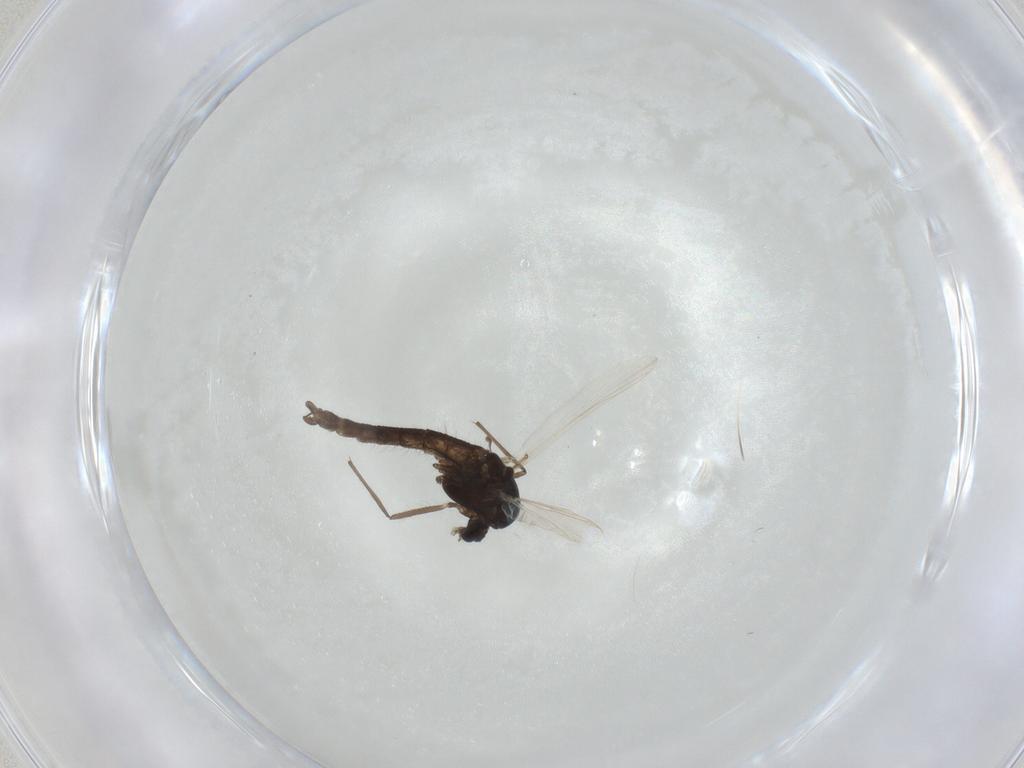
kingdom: Animalia
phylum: Arthropoda
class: Insecta
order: Diptera
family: Chironomidae
